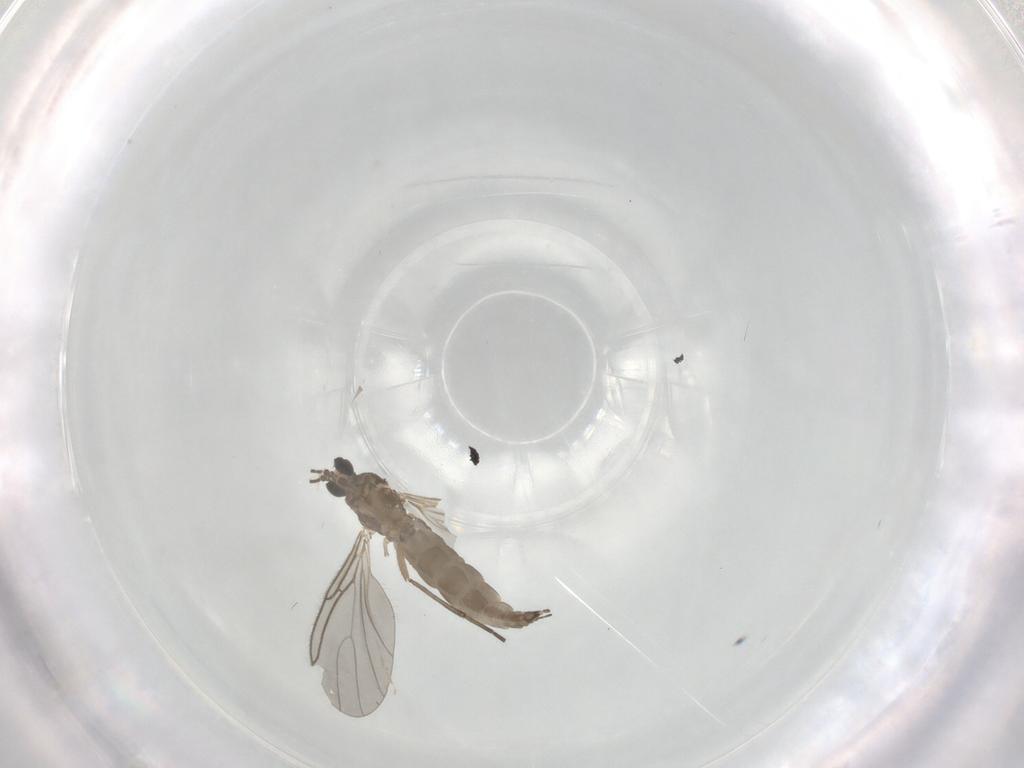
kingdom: Animalia
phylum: Arthropoda
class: Insecta
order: Diptera
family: Sciaridae
